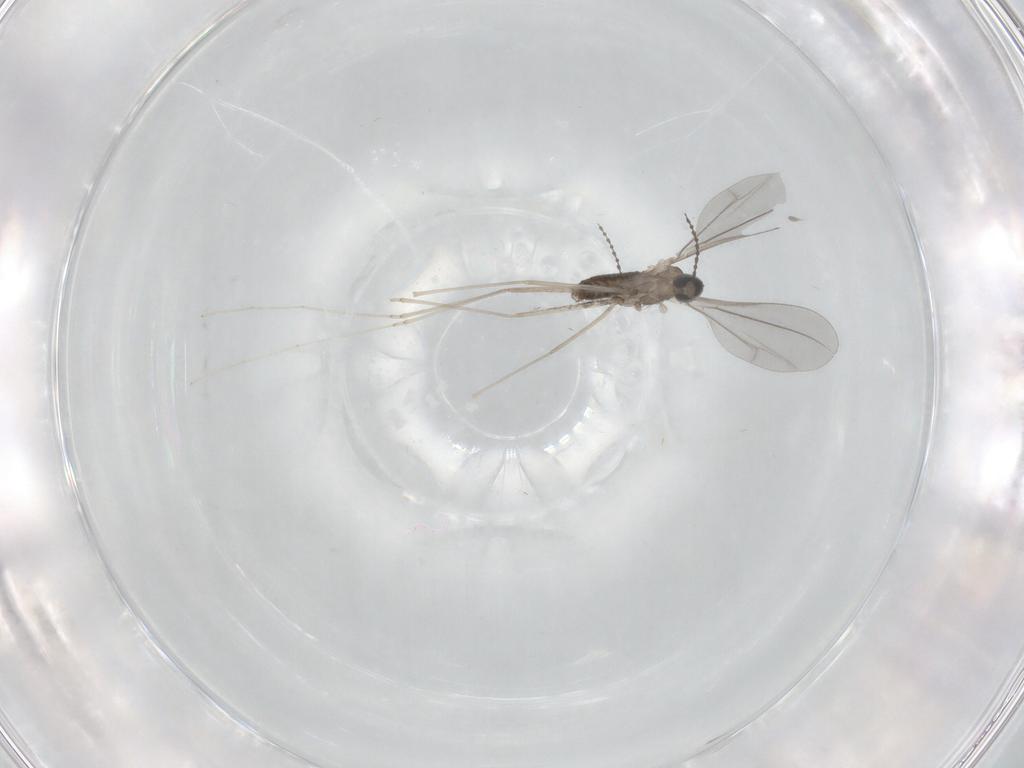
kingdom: Animalia
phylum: Arthropoda
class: Insecta
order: Diptera
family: Cecidomyiidae
